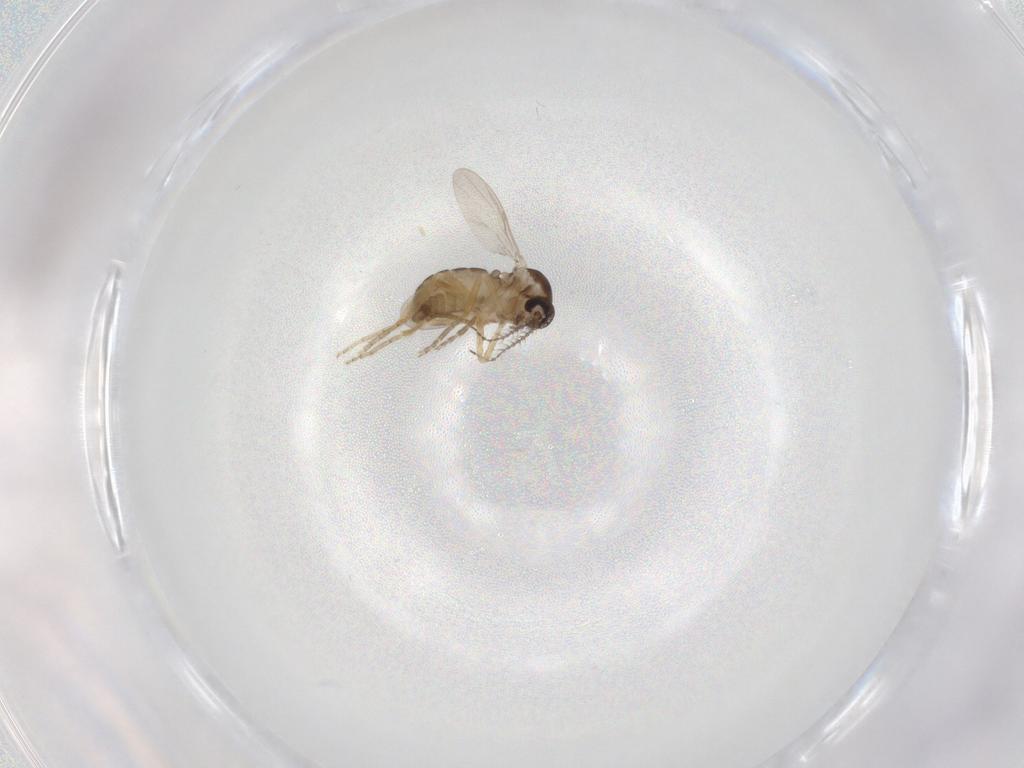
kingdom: Animalia
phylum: Arthropoda
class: Insecta
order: Diptera
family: Ceratopogonidae
